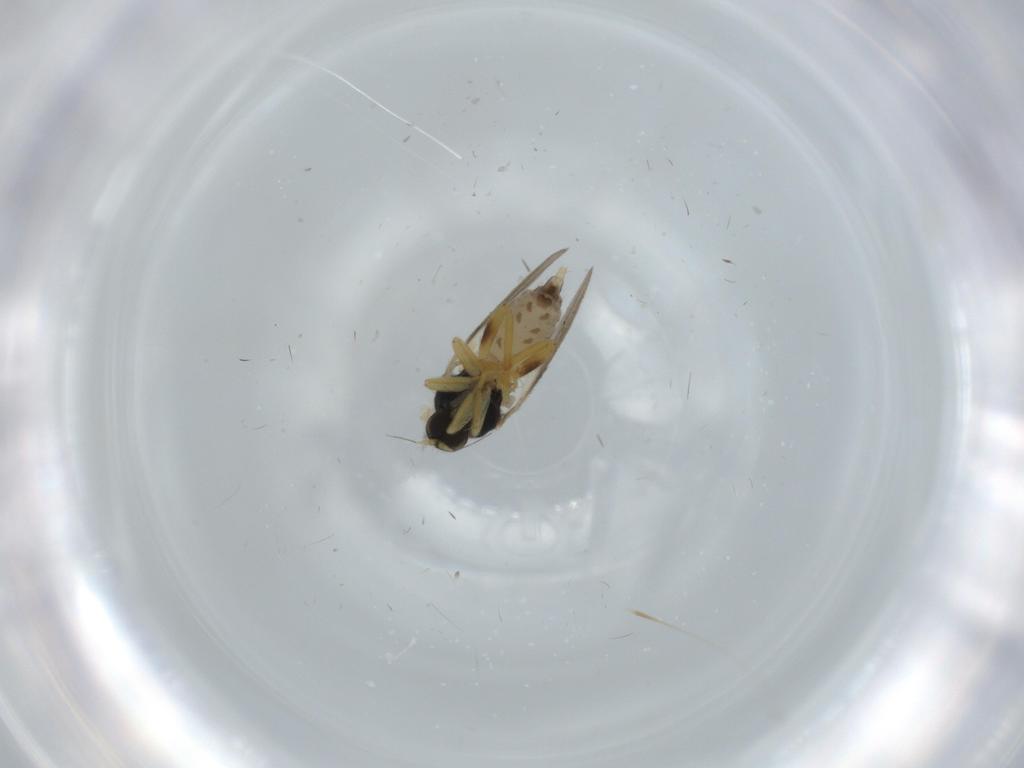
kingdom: Animalia
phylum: Arthropoda
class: Insecta
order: Diptera
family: Hybotidae
